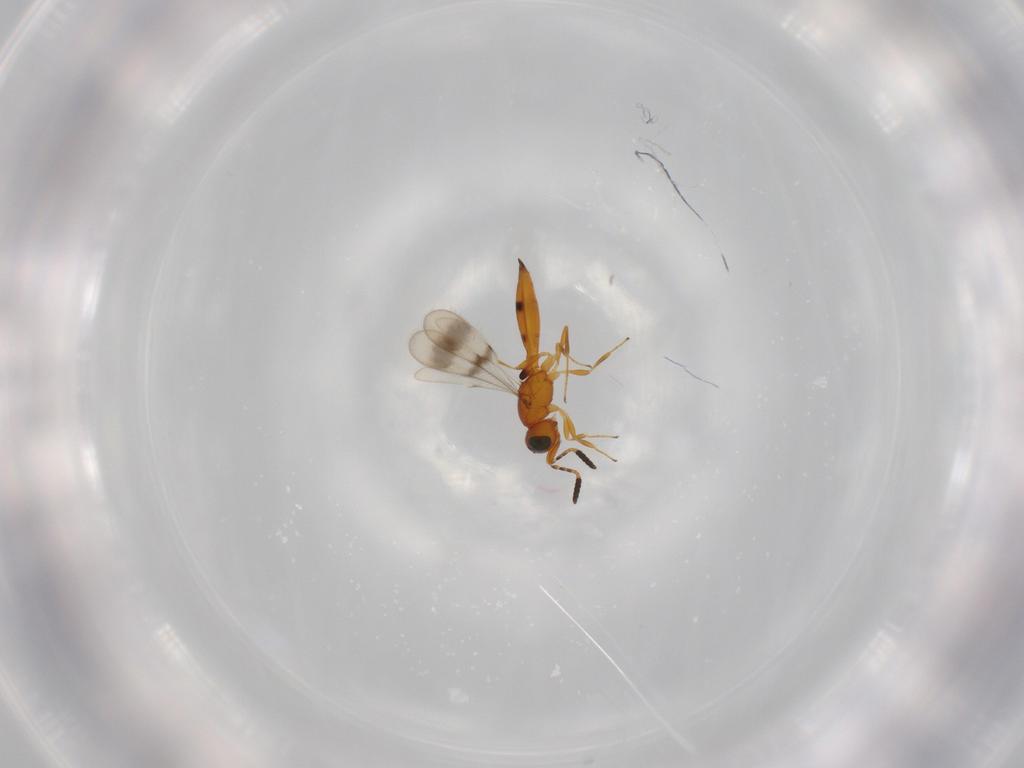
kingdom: Animalia
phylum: Arthropoda
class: Insecta
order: Hymenoptera
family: Scelionidae
